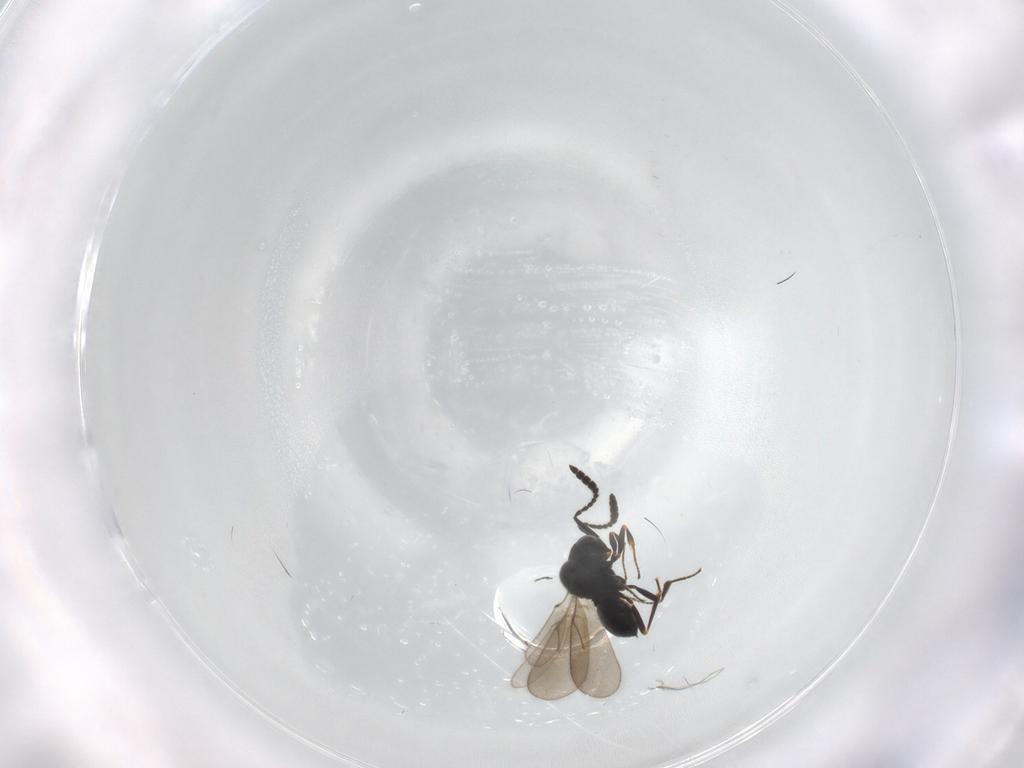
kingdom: Animalia
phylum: Arthropoda
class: Insecta
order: Hymenoptera
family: Scelionidae
